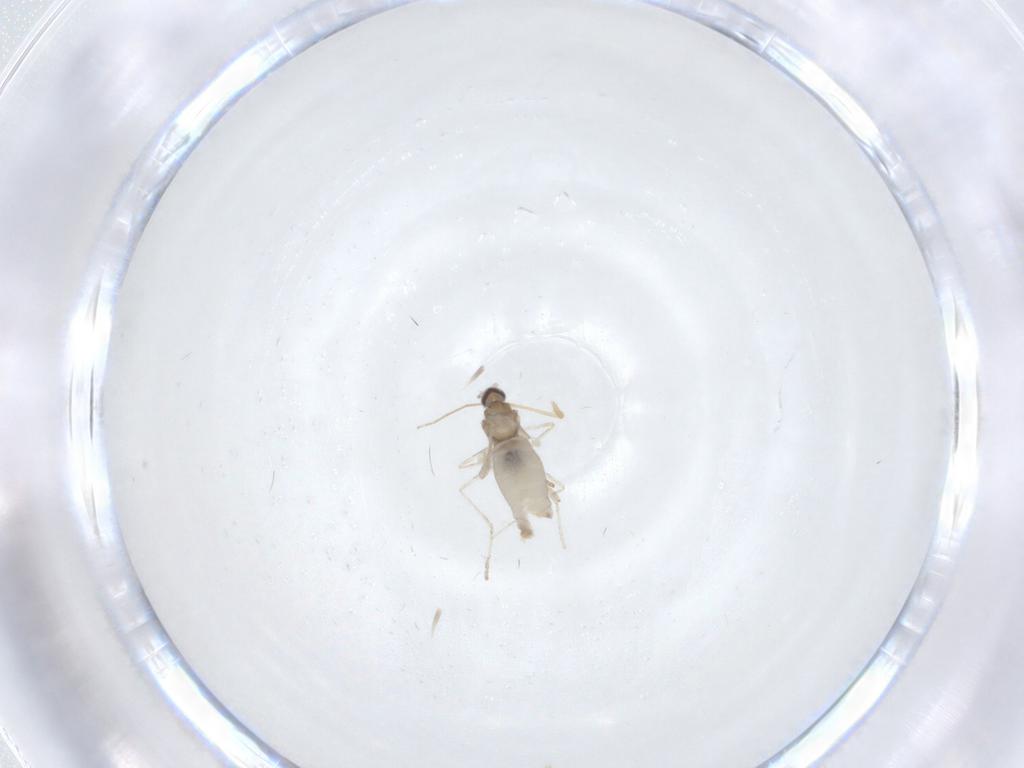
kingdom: Animalia
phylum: Arthropoda
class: Insecta
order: Diptera
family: Cecidomyiidae
